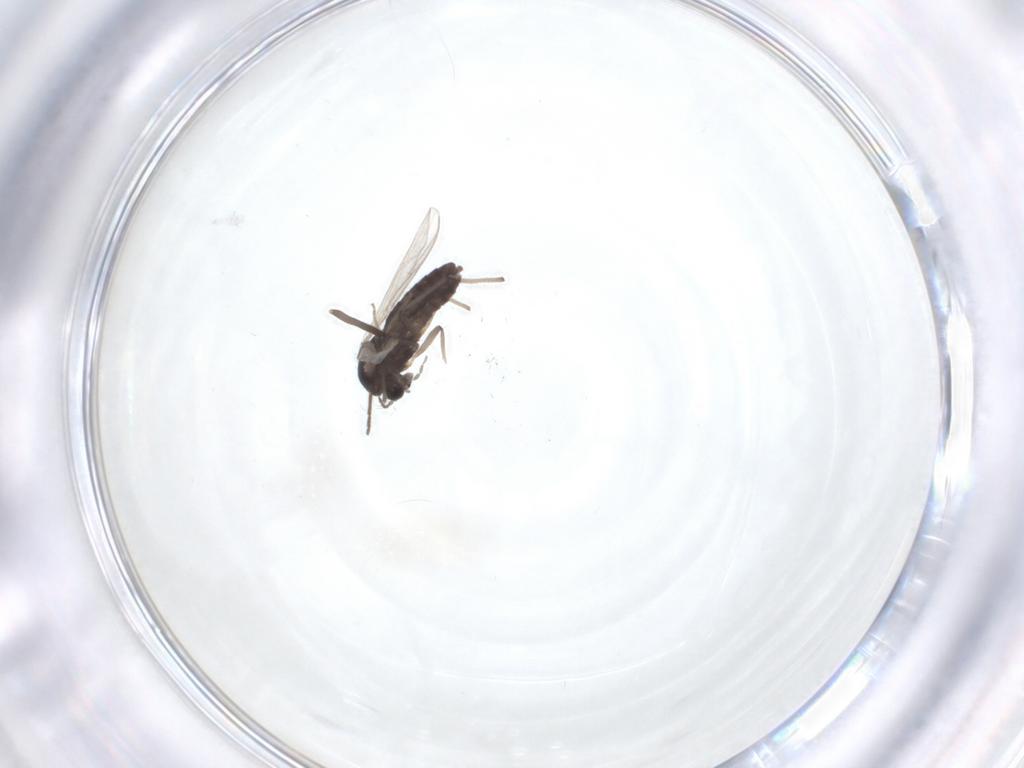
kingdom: Animalia
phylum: Arthropoda
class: Insecta
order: Diptera
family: Chironomidae
